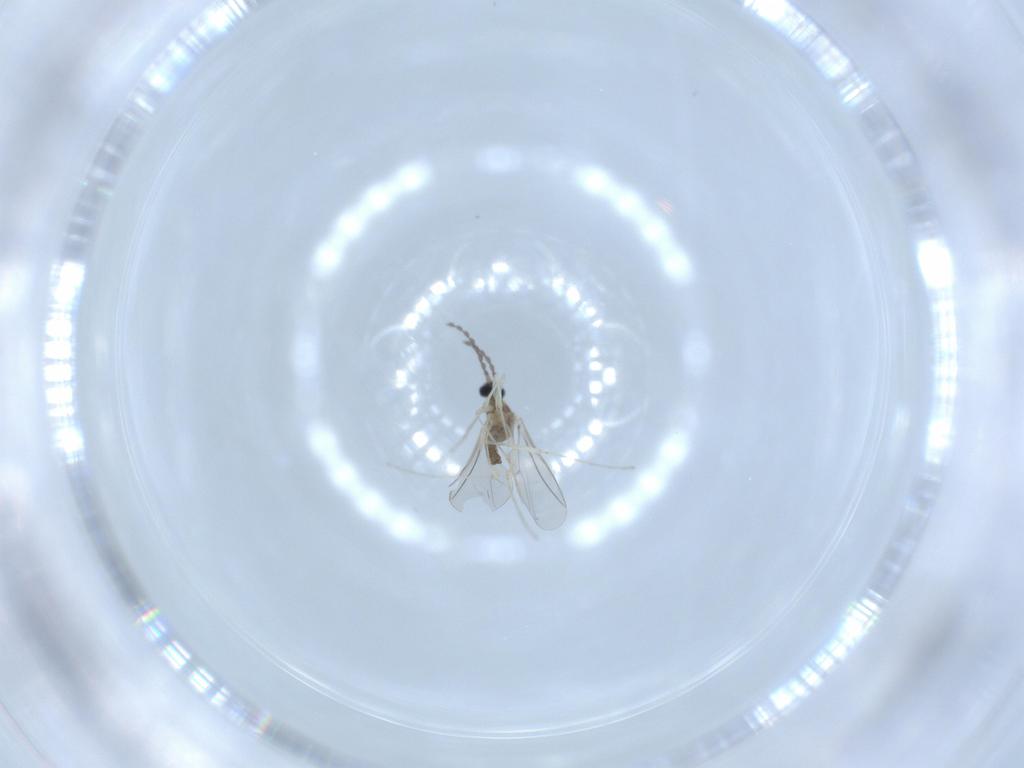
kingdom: Animalia
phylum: Arthropoda
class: Insecta
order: Diptera
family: Cecidomyiidae
